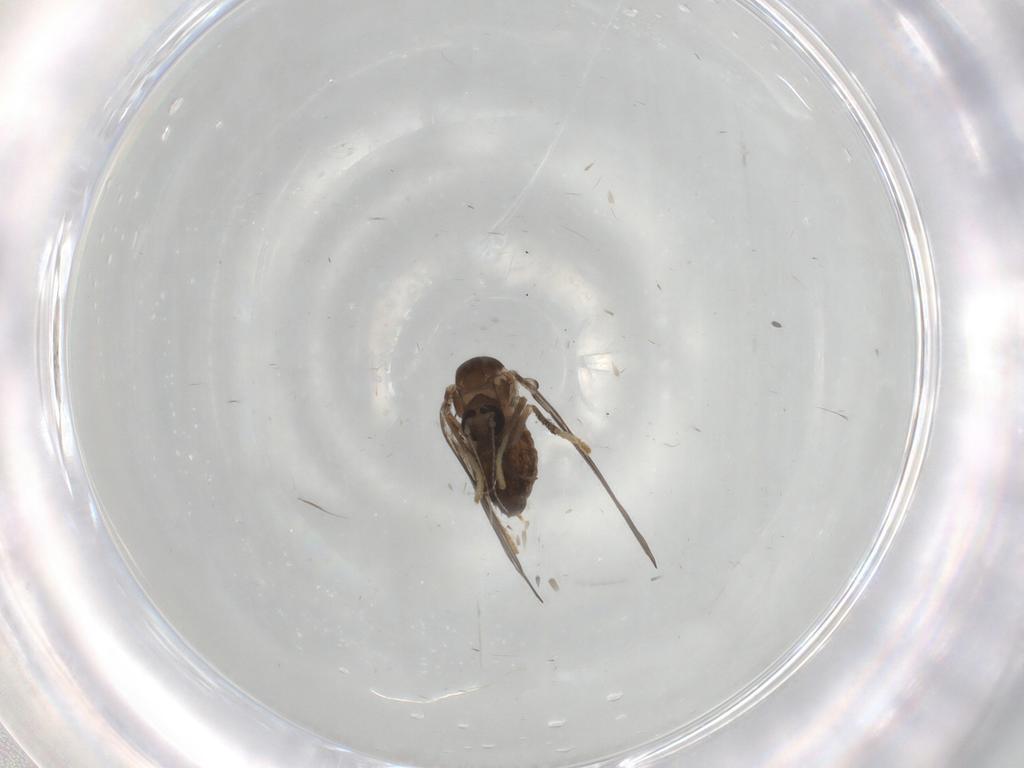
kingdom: Animalia
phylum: Arthropoda
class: Insecta
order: Diptera
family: Psychodidae
